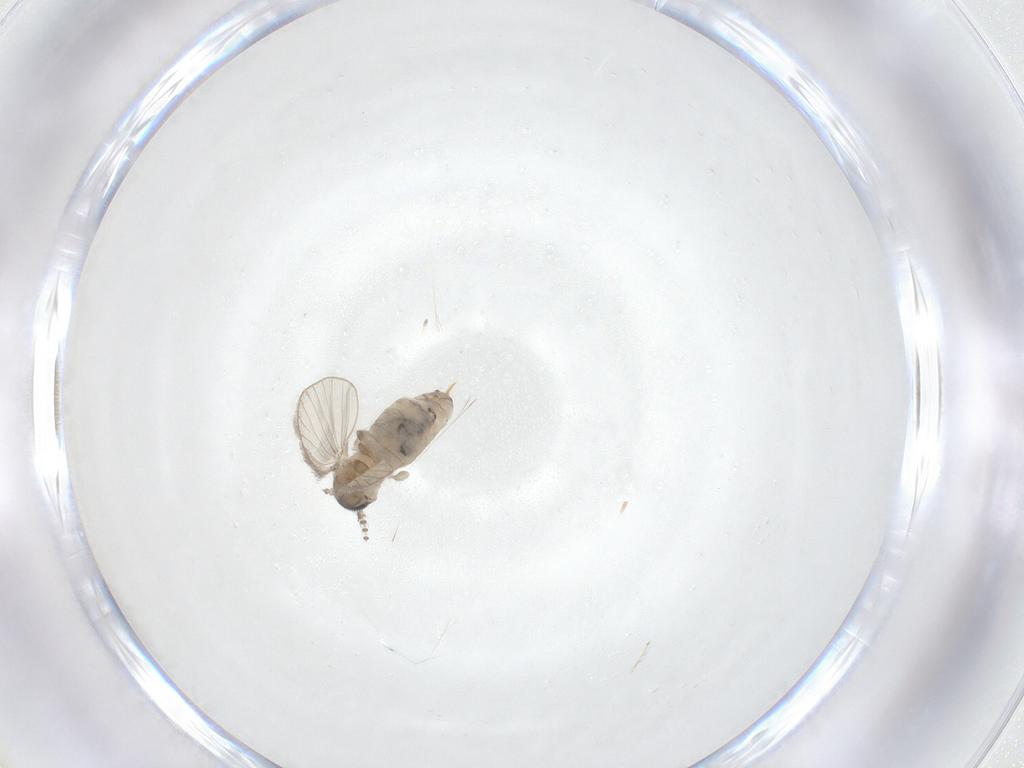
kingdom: Animalia
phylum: Arthropoda
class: Insecta
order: Diptera
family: Psychodidae
